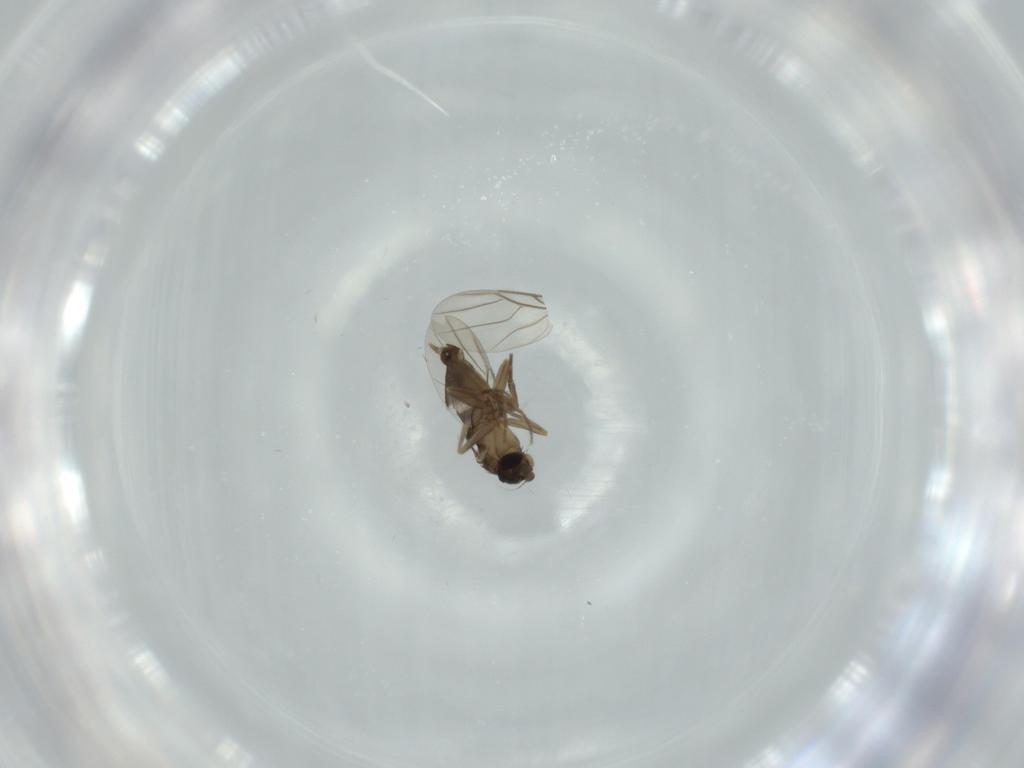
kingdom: Animalia
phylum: Arthropoda
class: Insecta
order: Diptera
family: Phoridae
